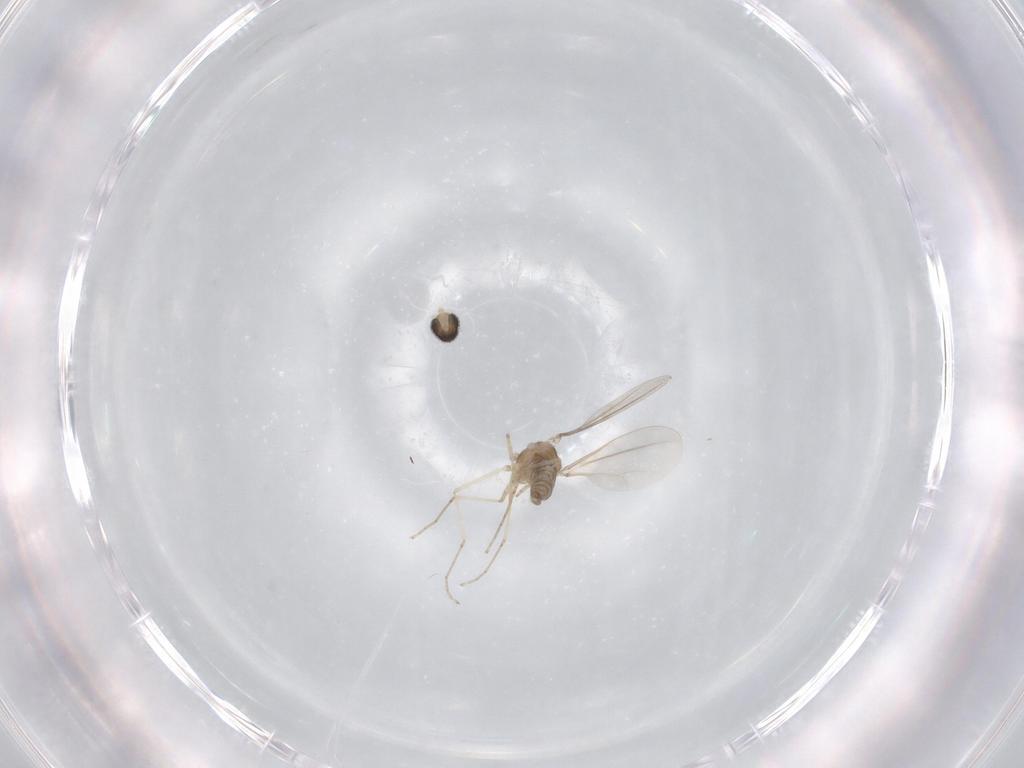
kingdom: Animalia
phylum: Arthropoda
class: Insecta
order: Diptera
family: Cecidomyiidae
